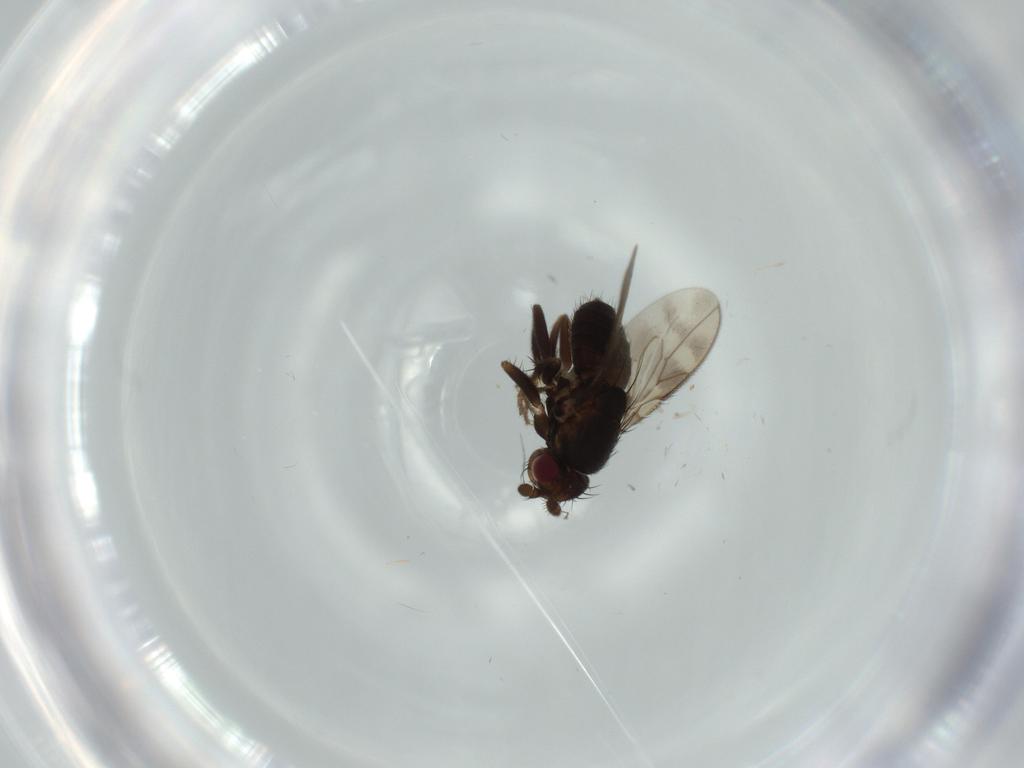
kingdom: Animalia
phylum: Arthropoda
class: Insecta
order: Diptera
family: Sphaeroceridae
